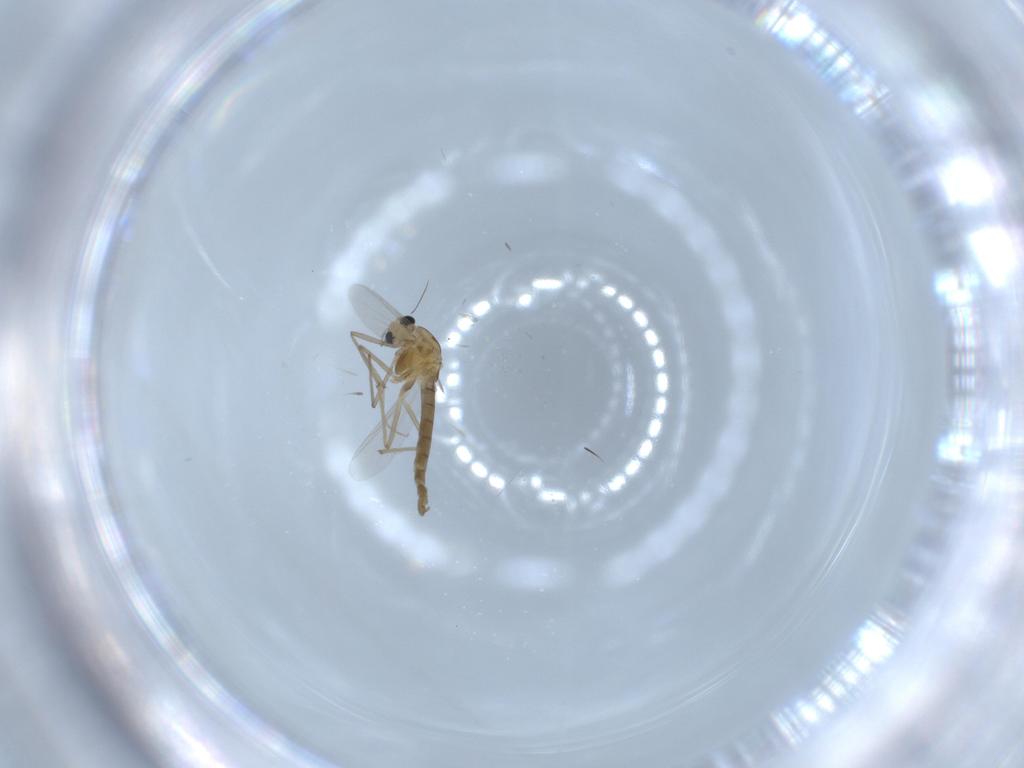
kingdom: Animalia
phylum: Arthropoda
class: Insecta
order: Diptera
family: Chironomidae
